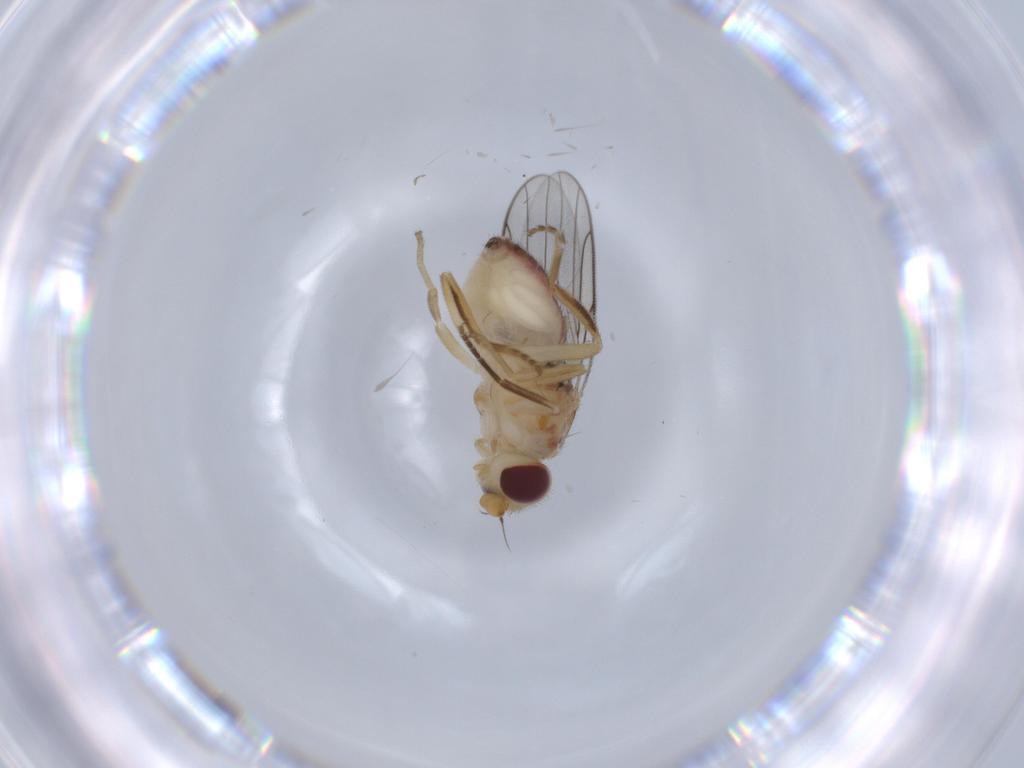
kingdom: Animalia
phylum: Arthropoda
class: Insecta
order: Diptera
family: Chloropidae
